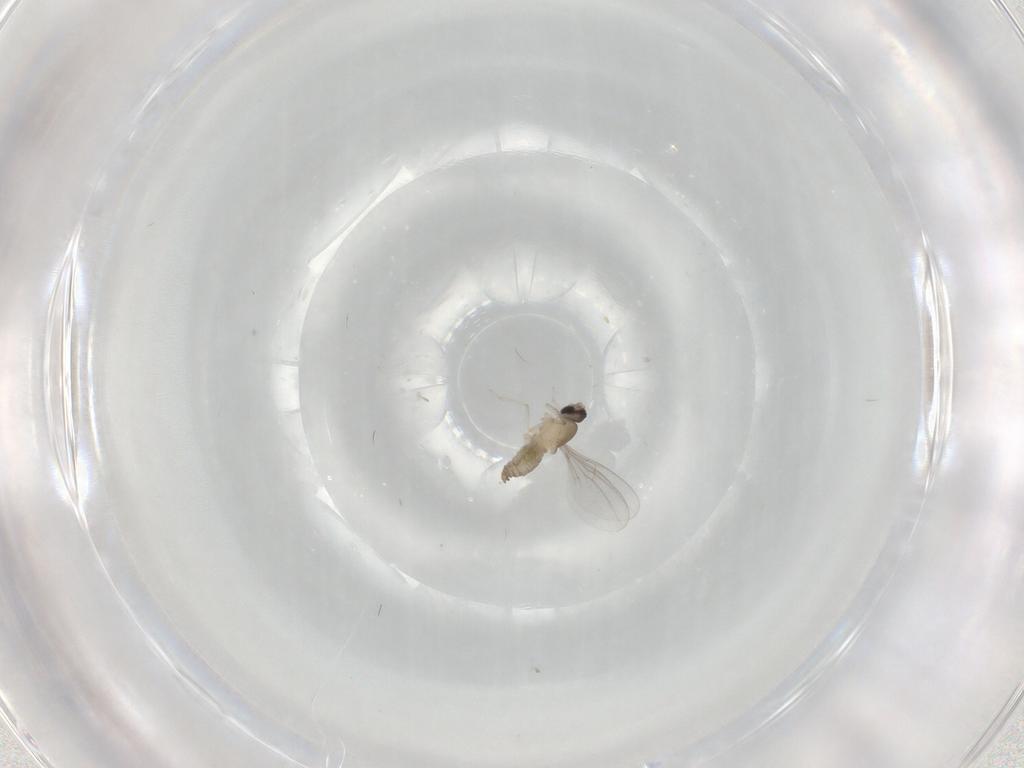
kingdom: Animalia
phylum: Arthropoda
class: Insecta
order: Diptera
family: Cecidomyiidae
